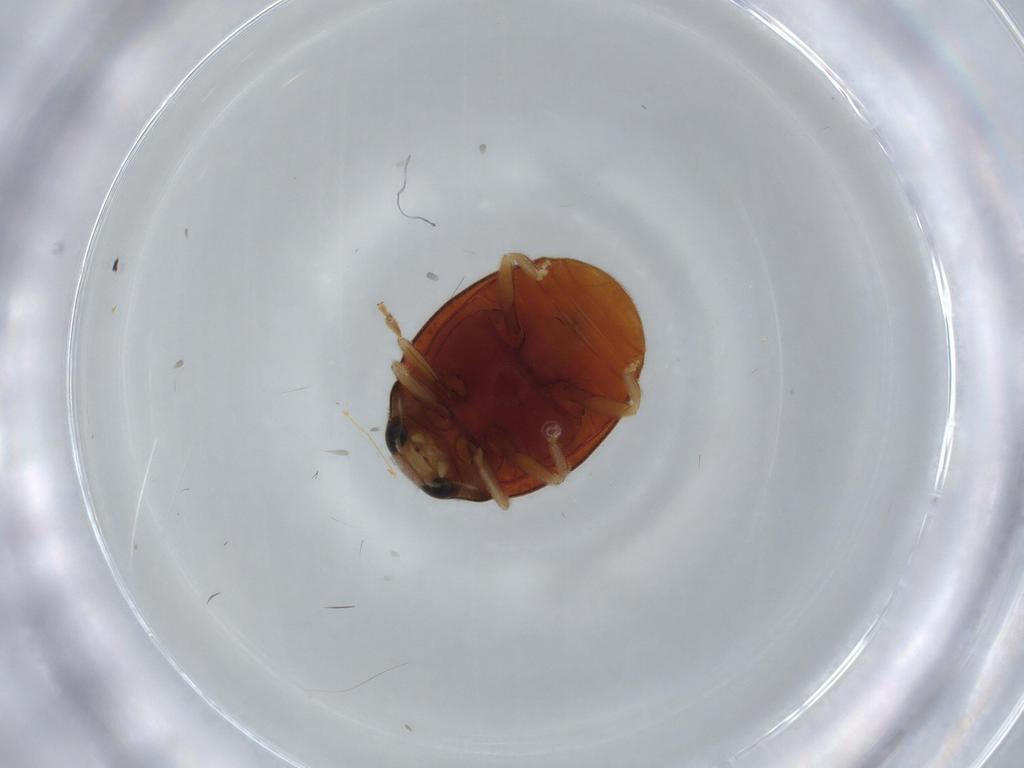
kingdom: Animalia
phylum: Arthropoda
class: Insecta
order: Coleoptera
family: Coccinellidae
